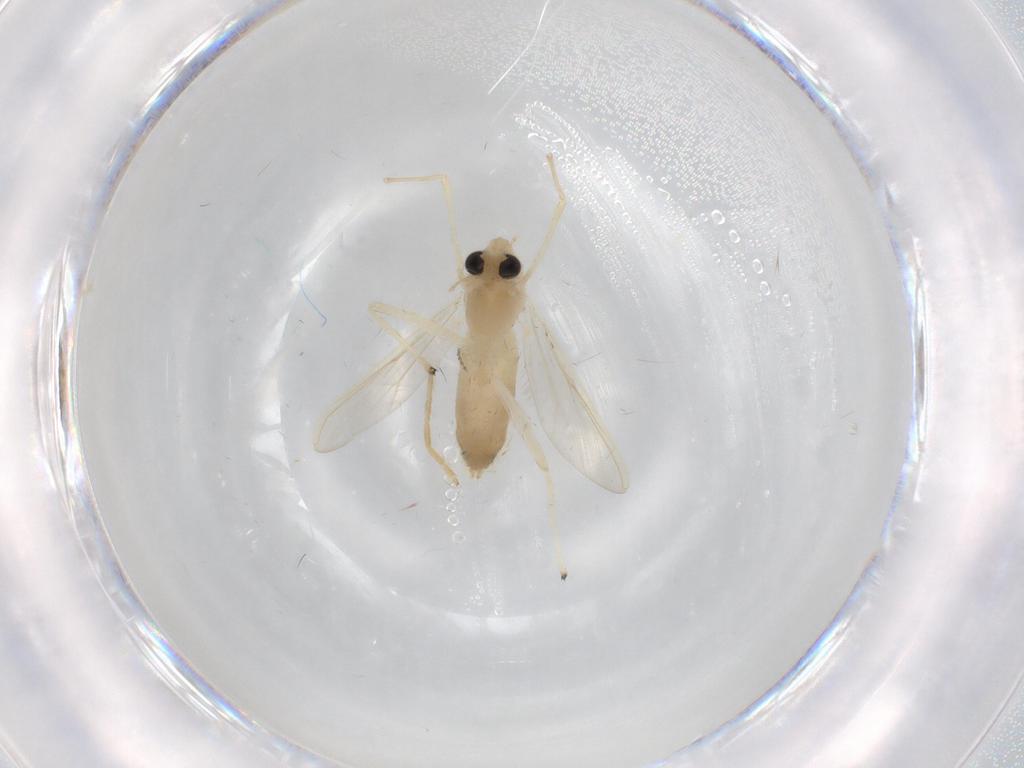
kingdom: Animalia
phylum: Arthropoda
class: Insecta
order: Diptera
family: Chironomidae
